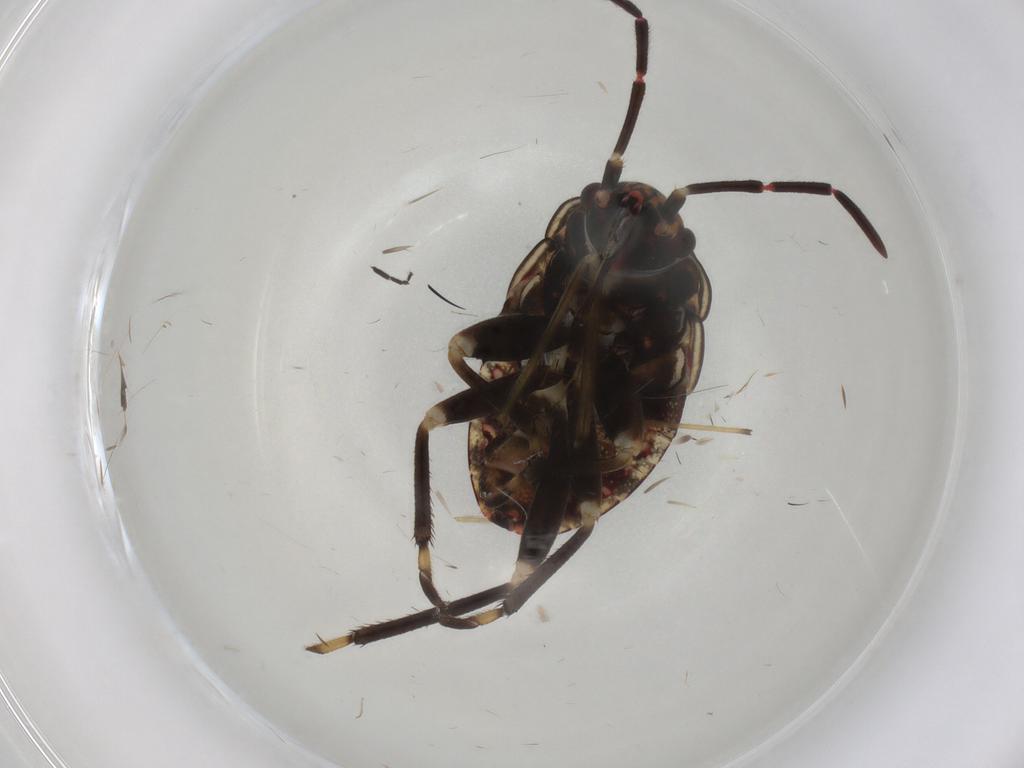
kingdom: Animalia
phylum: Arthropoda
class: Insecta
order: Hemiptera
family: Rhyparochromidae
